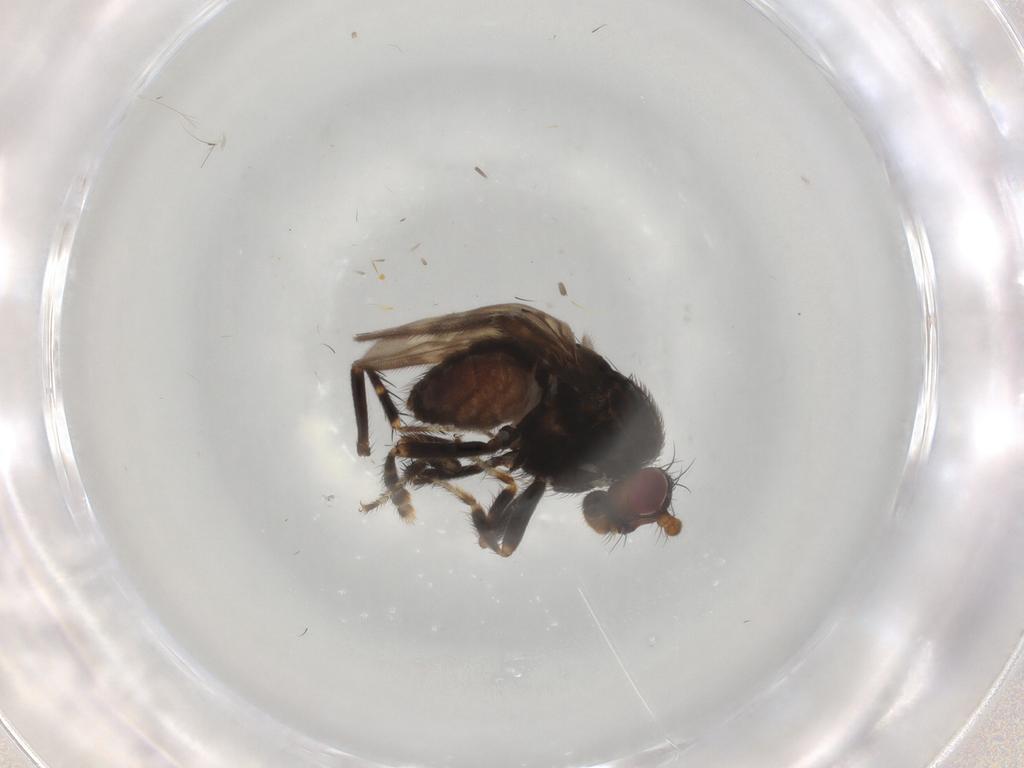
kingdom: Animalia
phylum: Arthropoda
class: Insecta
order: Diptera
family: Sphaeroceridae
